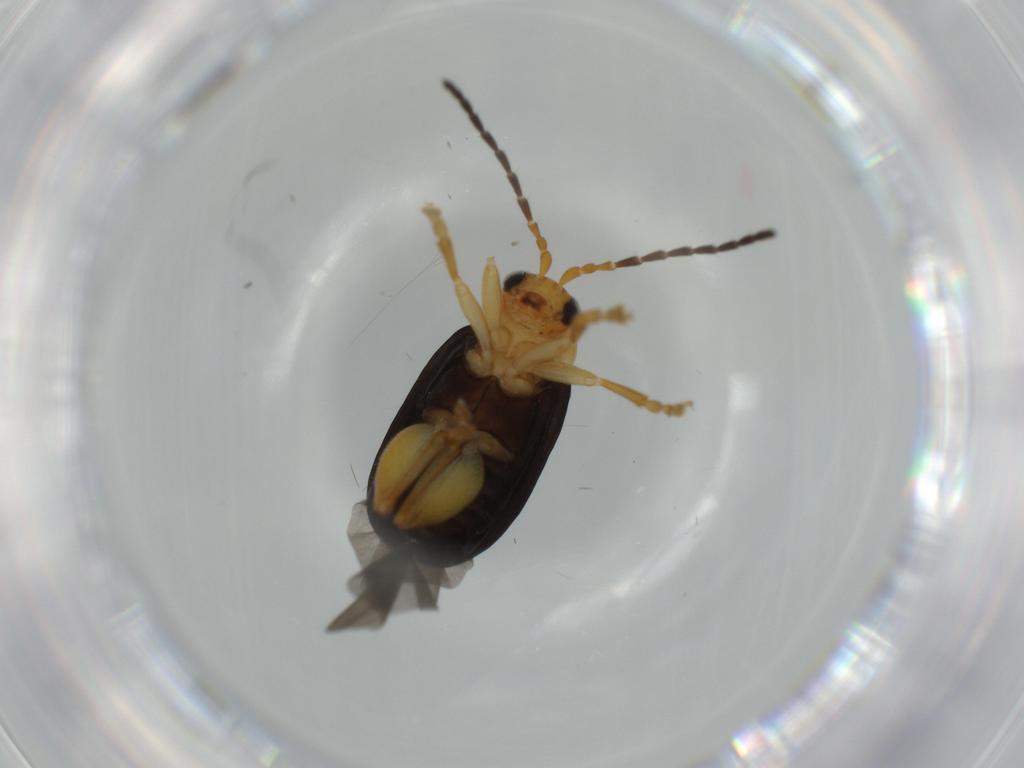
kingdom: Animalia
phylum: Arthropoda
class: Insecta
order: Coleoptera
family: Chrysomelidae
